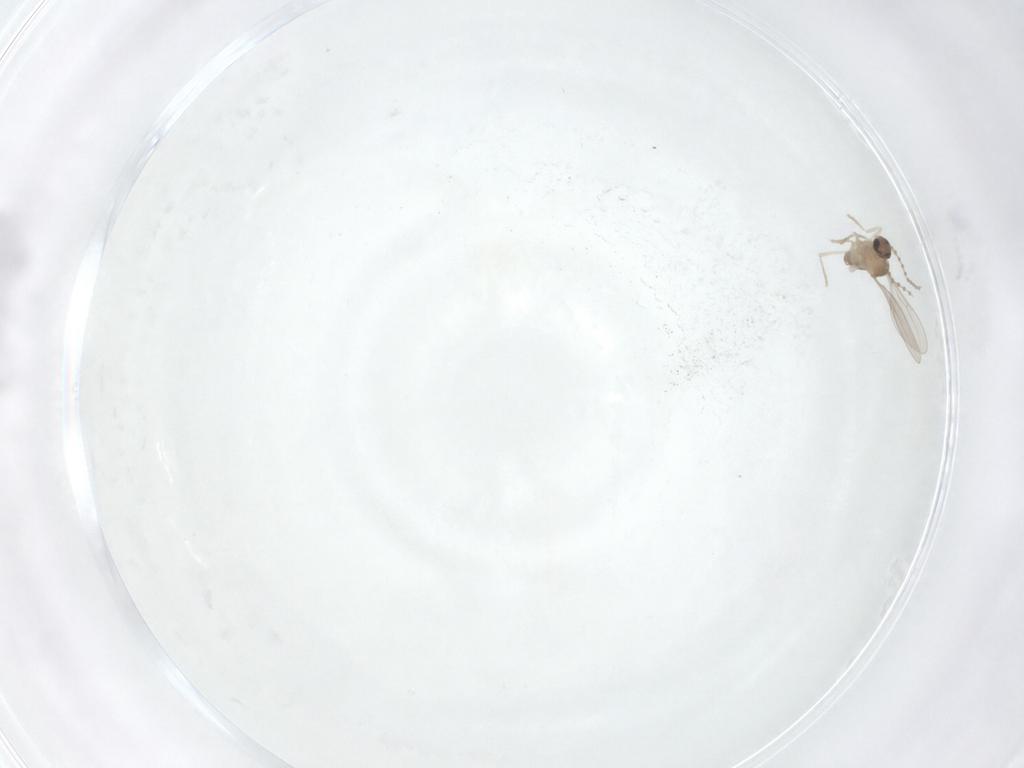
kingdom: Animalia
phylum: Arthropoda
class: Insecta
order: Diptera
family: Cecidomyiidae
